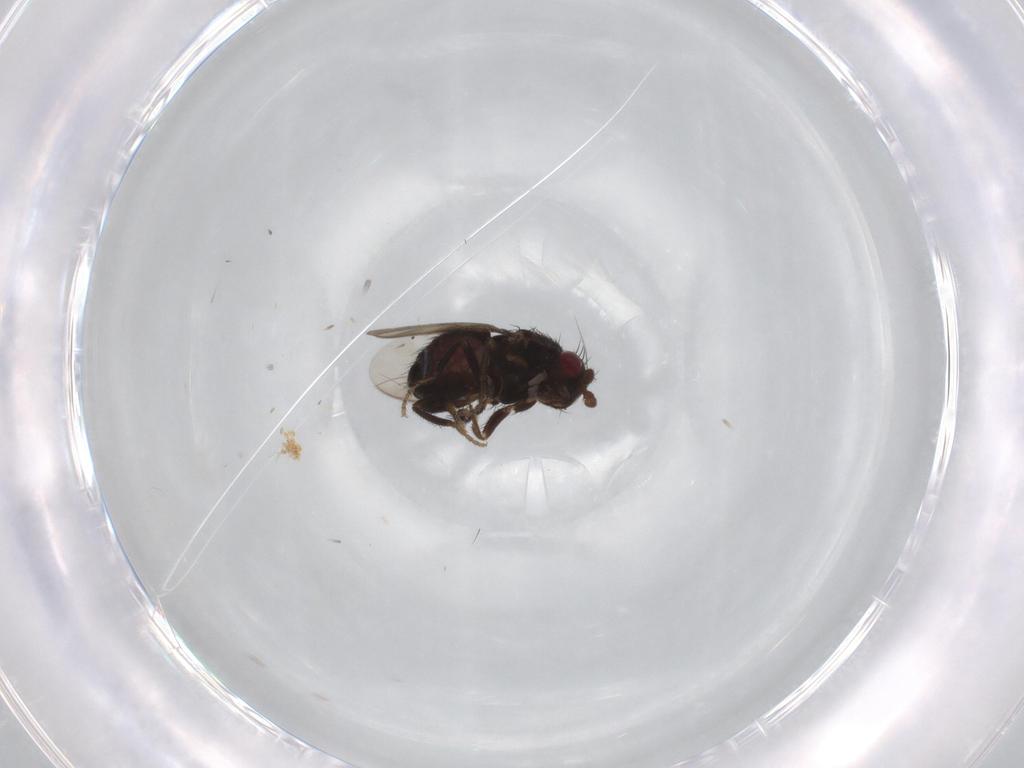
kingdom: Animalia
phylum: Arthropoda
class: Insecta
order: Diptera
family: Sphaeroceridae
